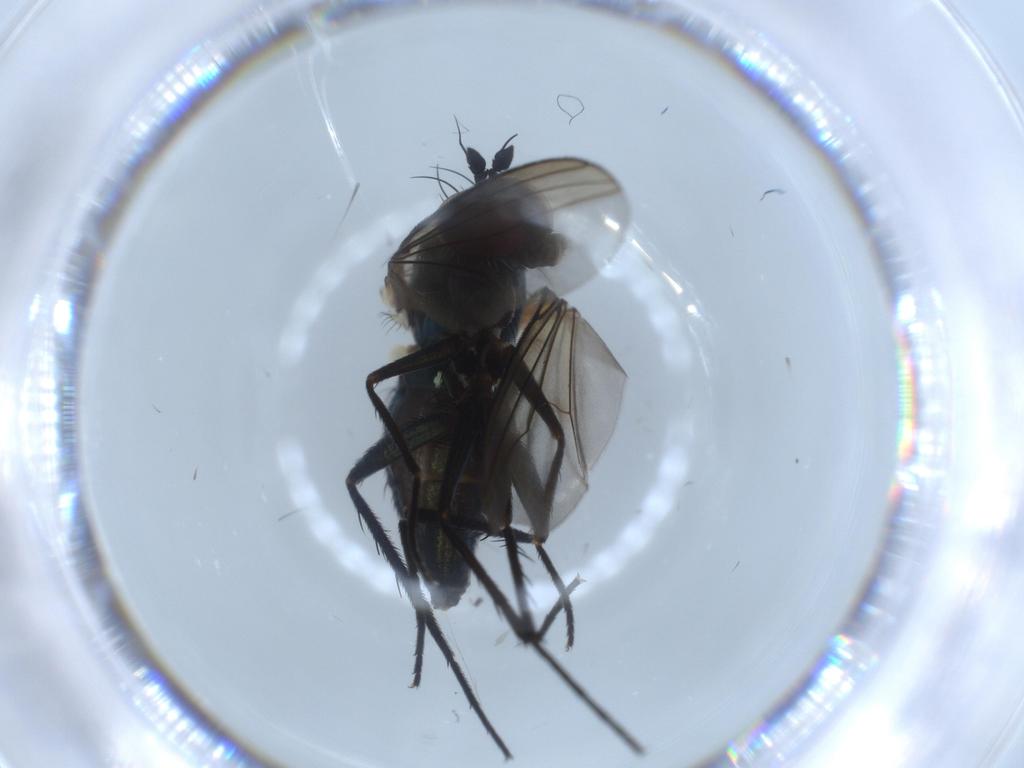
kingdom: Animalia
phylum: Arthropoda
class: Insecta
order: Diptera
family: Dolichopodidae
